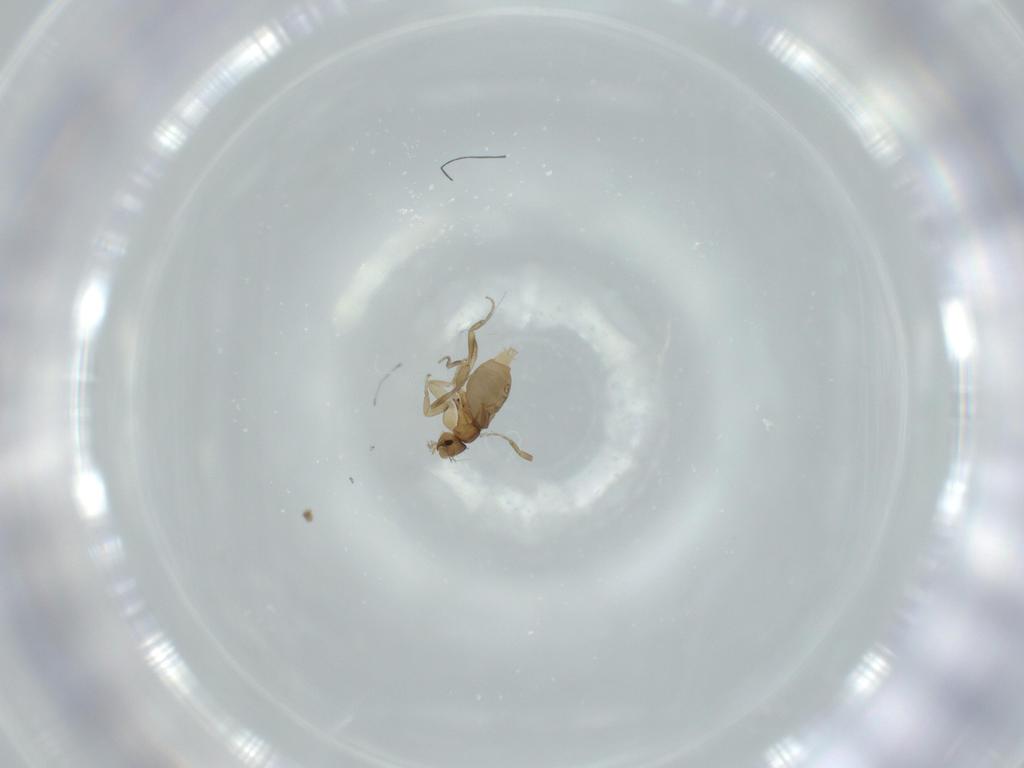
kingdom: Animalia
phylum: Arthropoda
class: Insecta
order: Diptera
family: Phoridae
